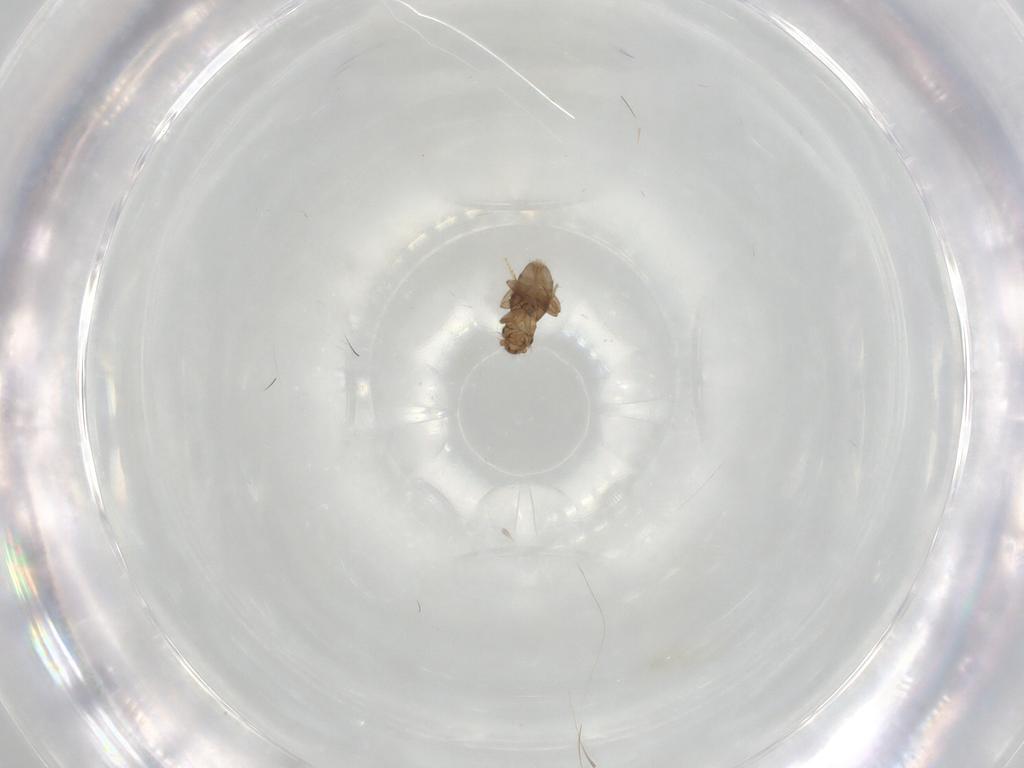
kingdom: Animalia
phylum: Arthropoda
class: Insecta
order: Diptera
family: Drosophilidae
